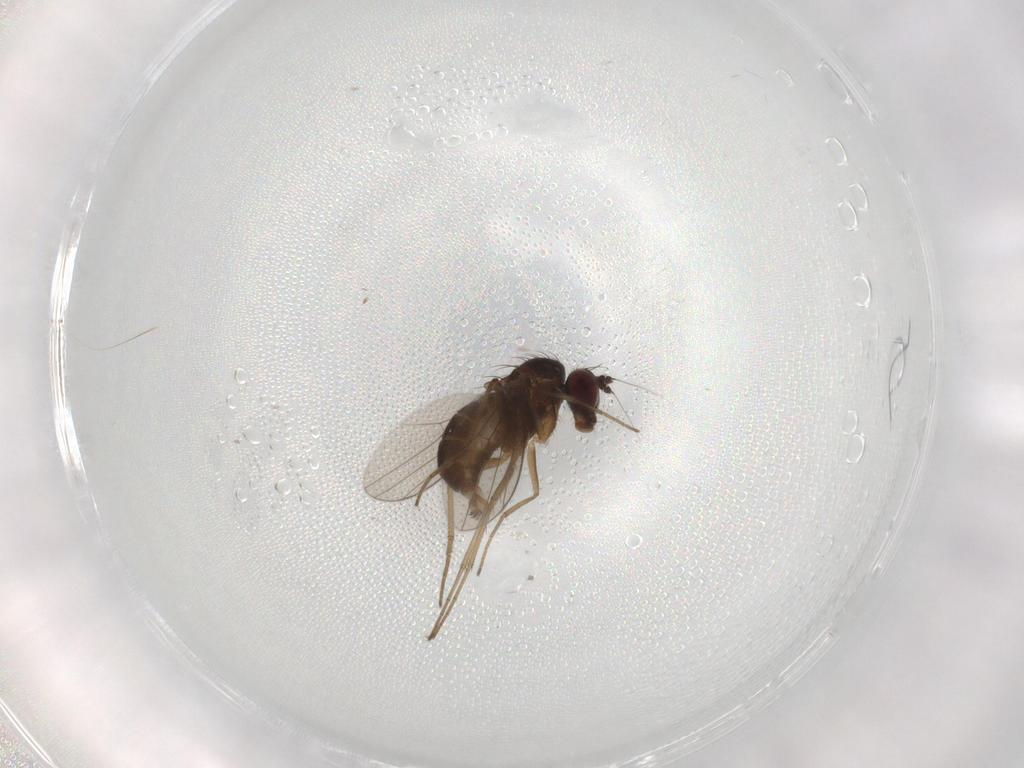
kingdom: Animalia
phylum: Arthropoda
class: Insecta
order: Diptera
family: Dolichopodidae
